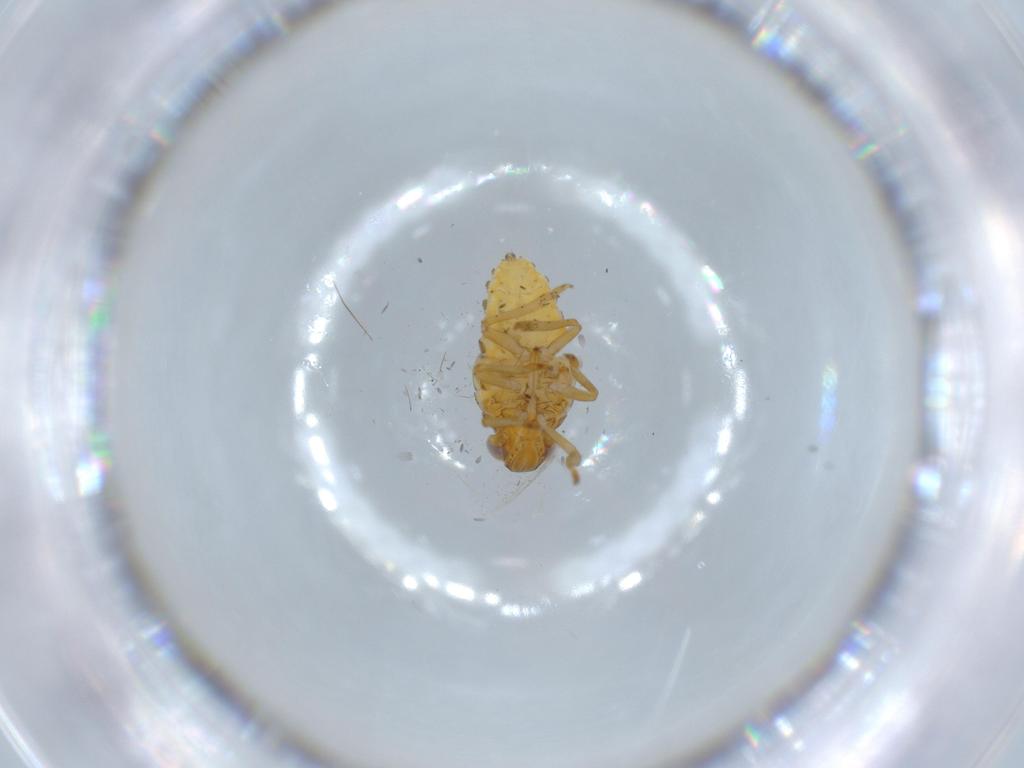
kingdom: Animalia
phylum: Arthropoda
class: Insecta
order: Hemiptera
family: Issidae
